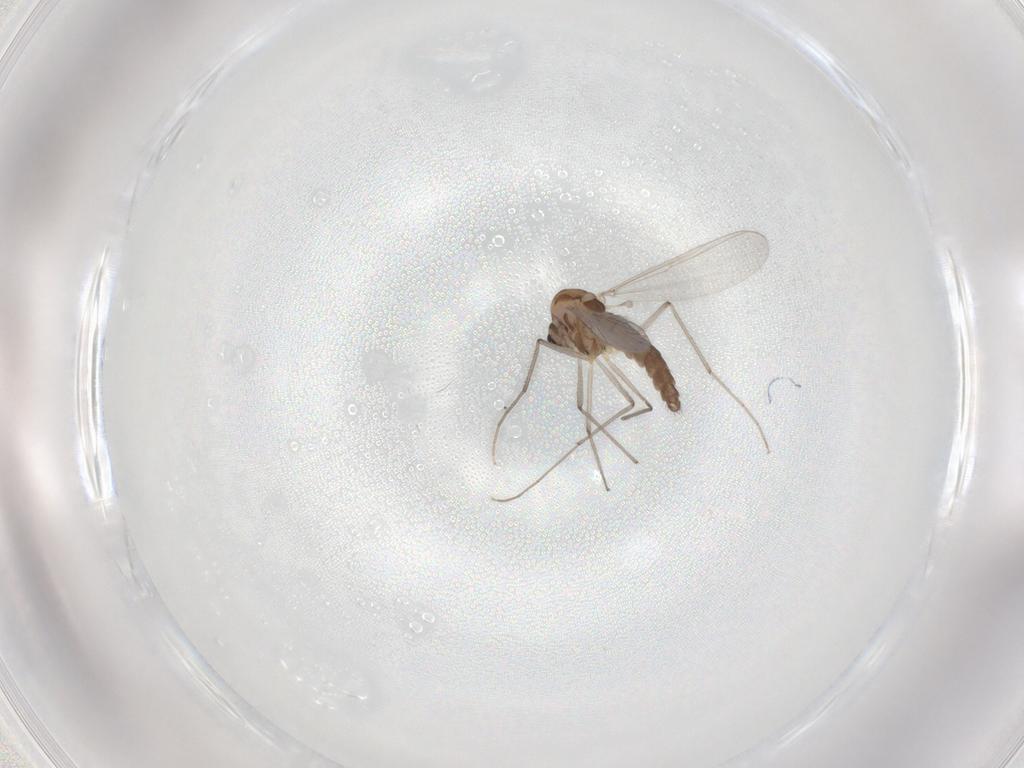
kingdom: Animalia
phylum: Arthropoda
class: Insecta
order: Diptera
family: Chironomidae
